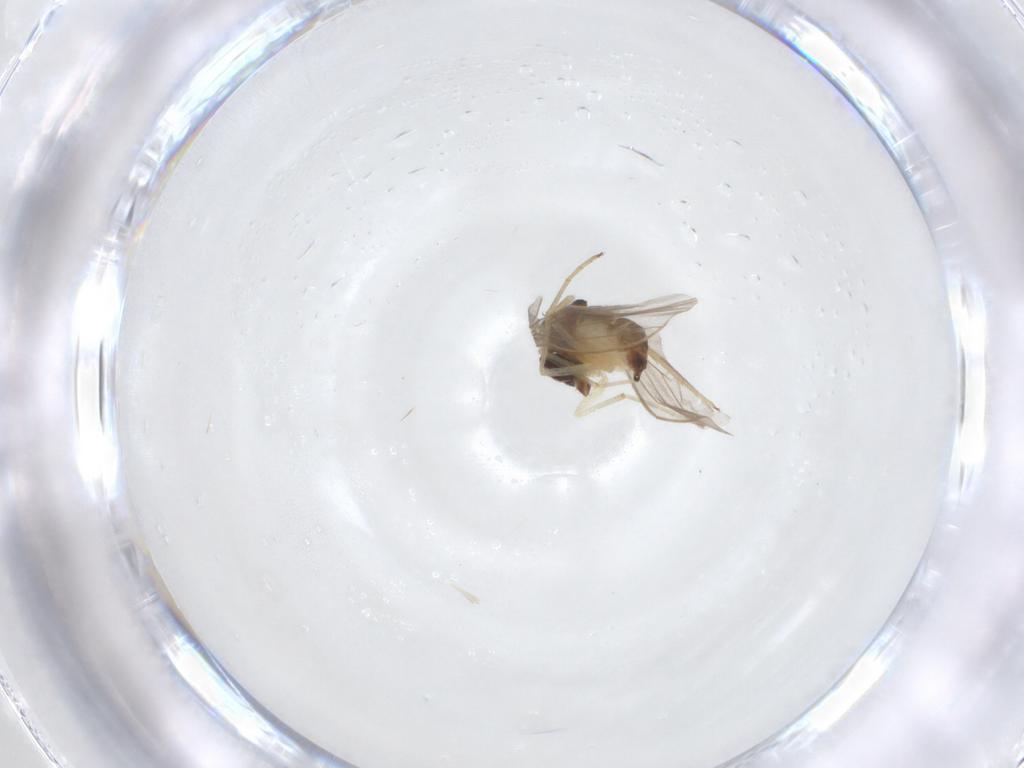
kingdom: Animalia
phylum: Arthropoda
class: Insecta
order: Diptera
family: Dolichopodidae
